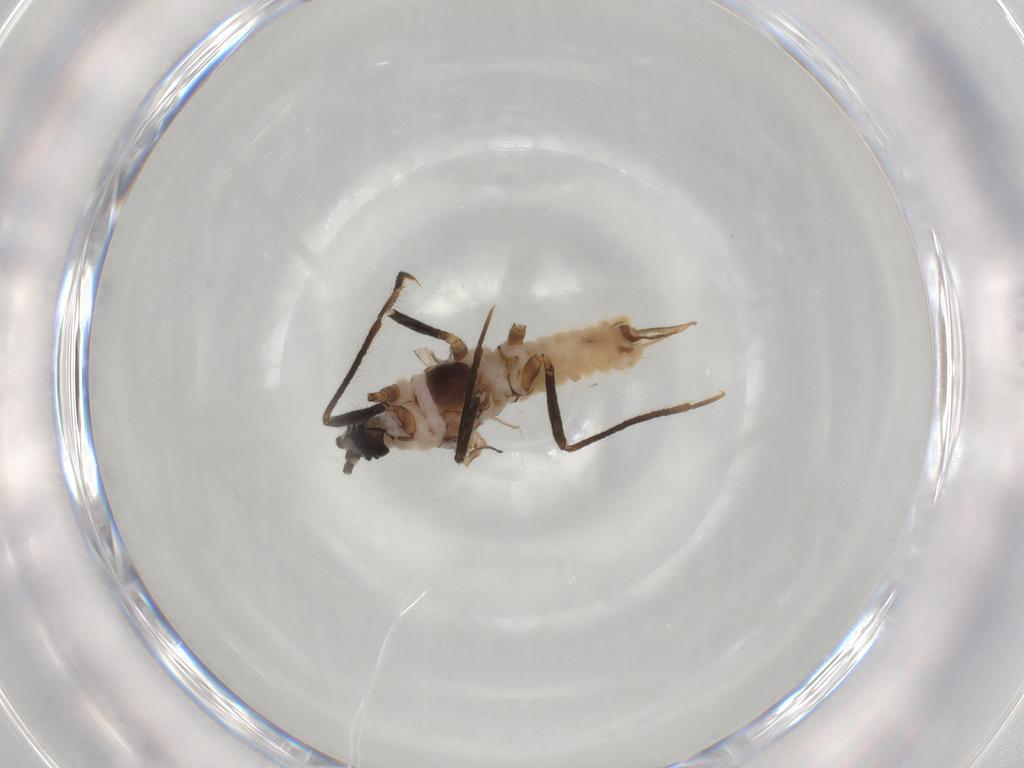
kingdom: Animalia
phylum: Arthropoda
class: Insecta
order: Hemiptera
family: Putoidae
